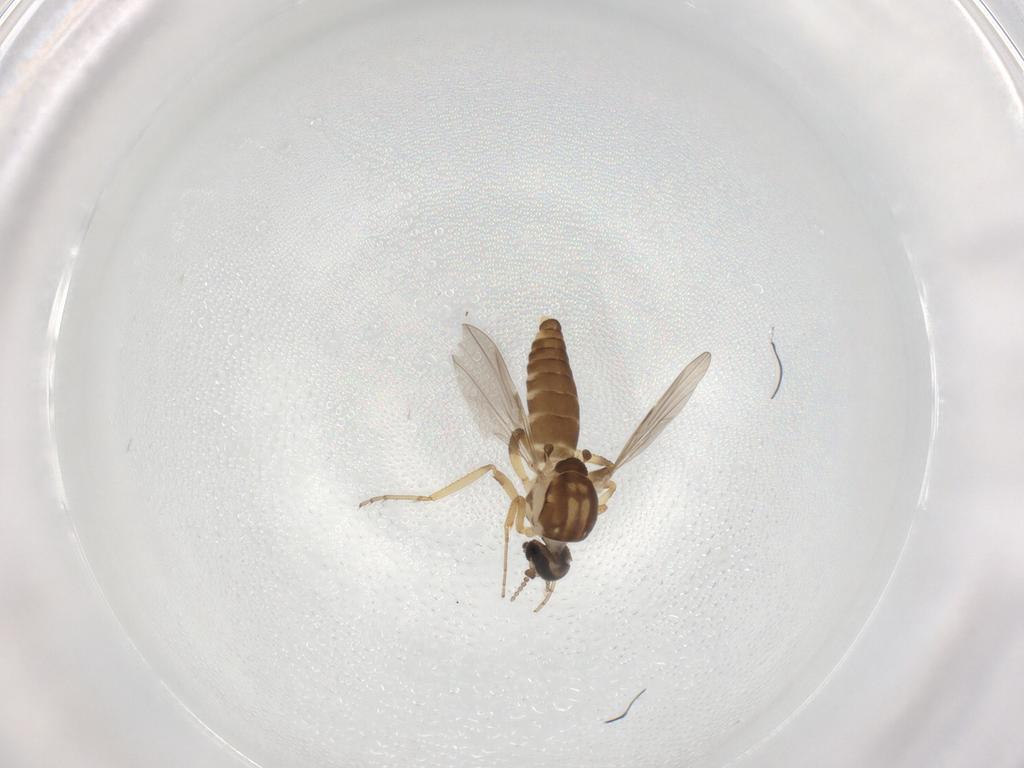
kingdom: Animalia
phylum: Arthropoda
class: Insecta
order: Diptera
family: Ceratopogonidae
